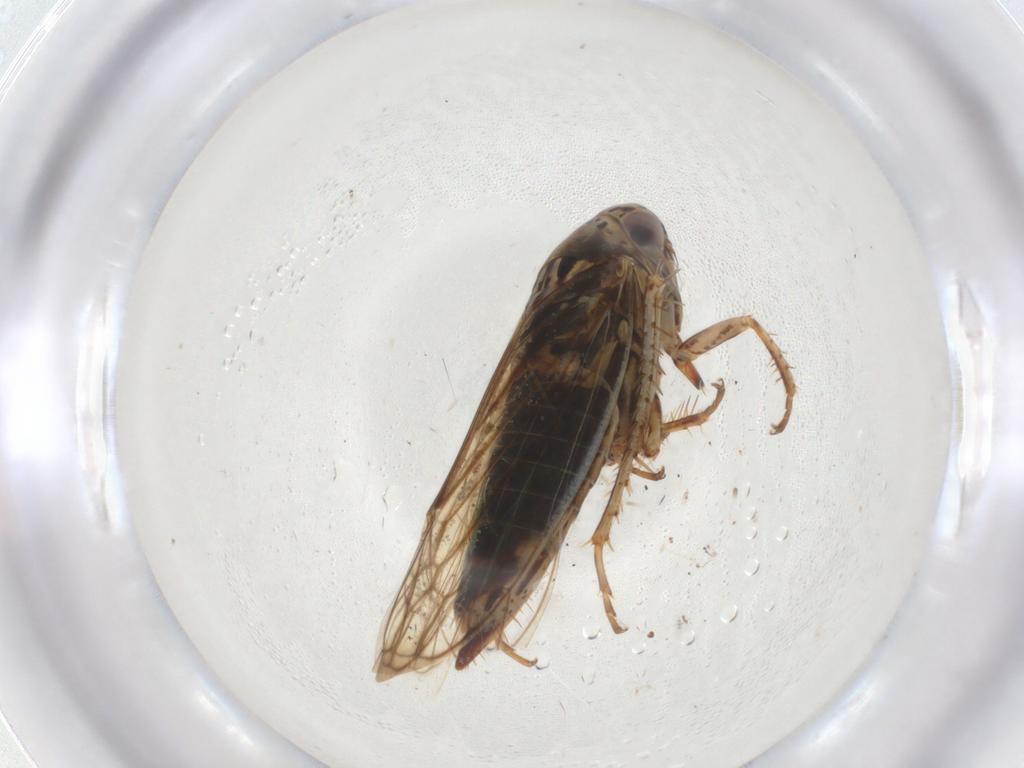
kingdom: Animalia
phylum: Arthropoda
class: Insecta
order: Hemiptera
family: Cicadellidae
